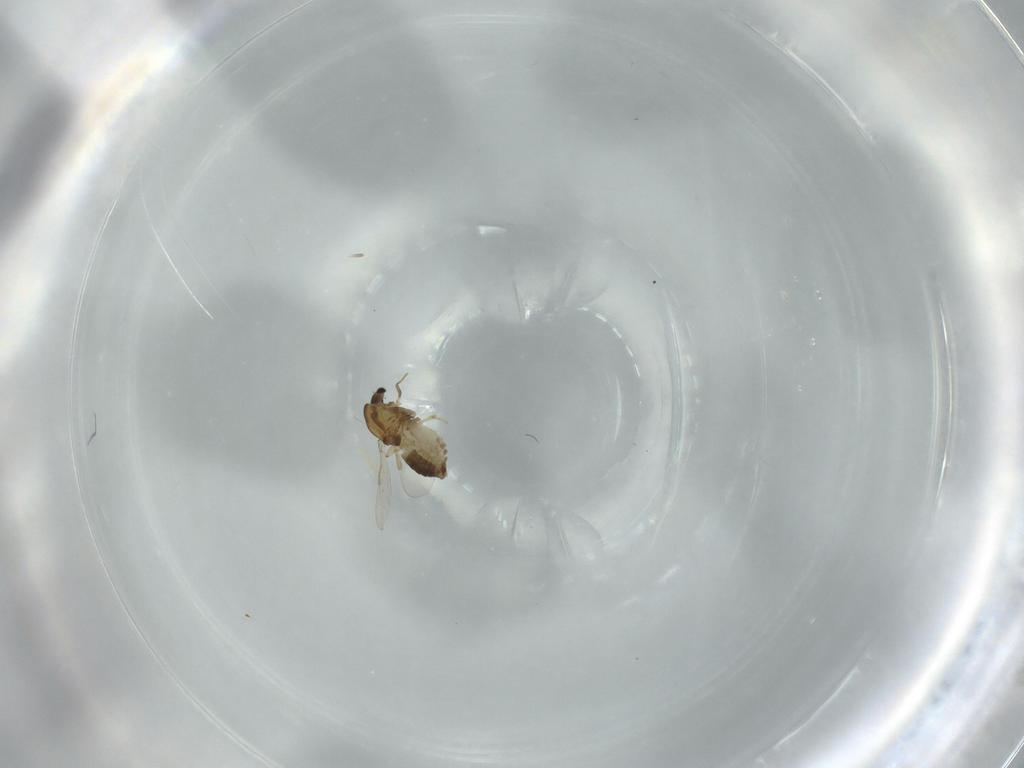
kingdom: Animalia
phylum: Arthropoda
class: Insecta
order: Diptera
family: Chironomidae
